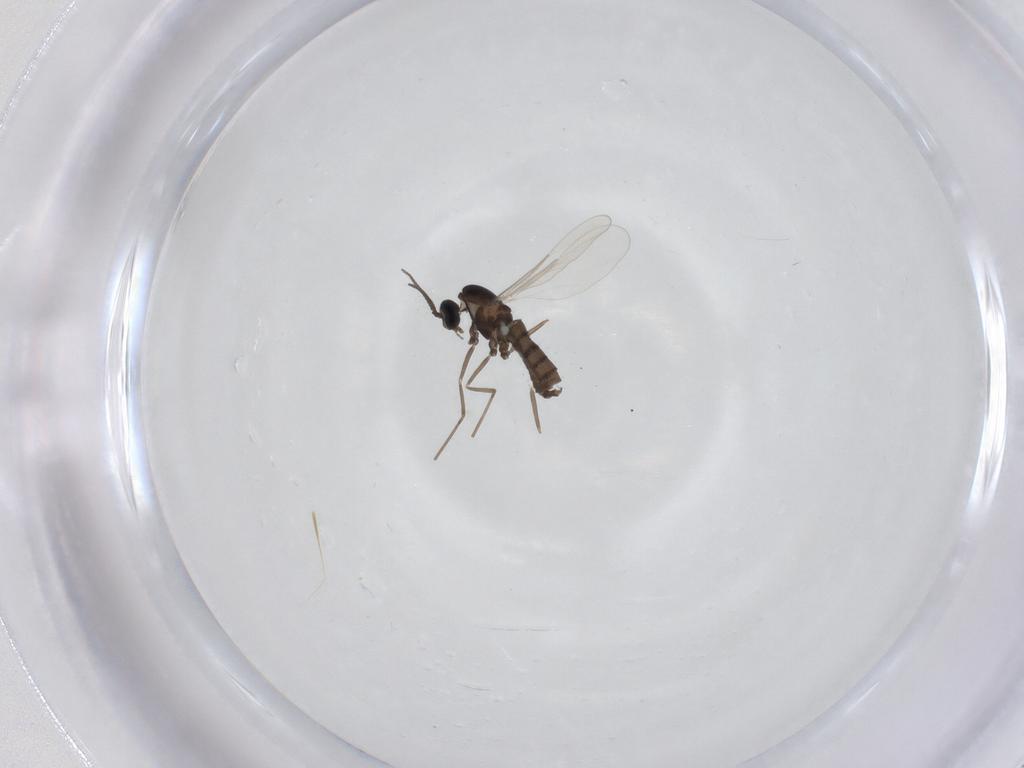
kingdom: Animalia
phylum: Arthropoda
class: Insecta
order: Diptera
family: Cecidomyiidae
